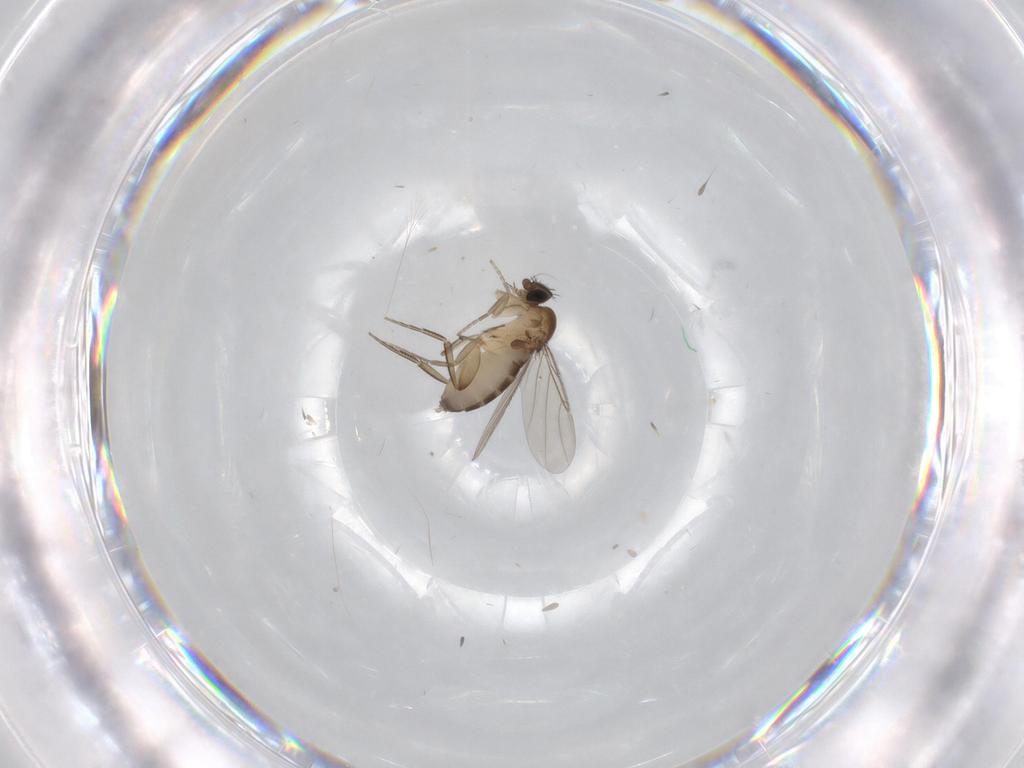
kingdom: Animalia
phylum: Arthropoda
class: Insecta
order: Diptera
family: Phoridae
